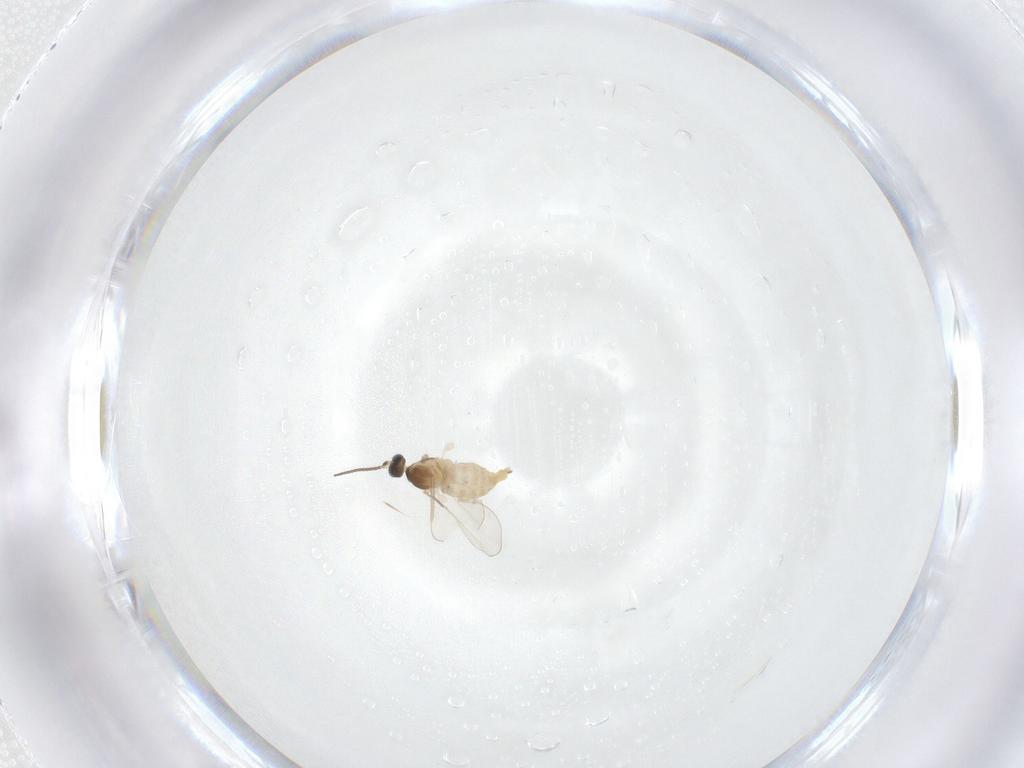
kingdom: Animalia
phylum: Arthropoda
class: Insecta
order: Diptera
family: Cecidomyiidae
